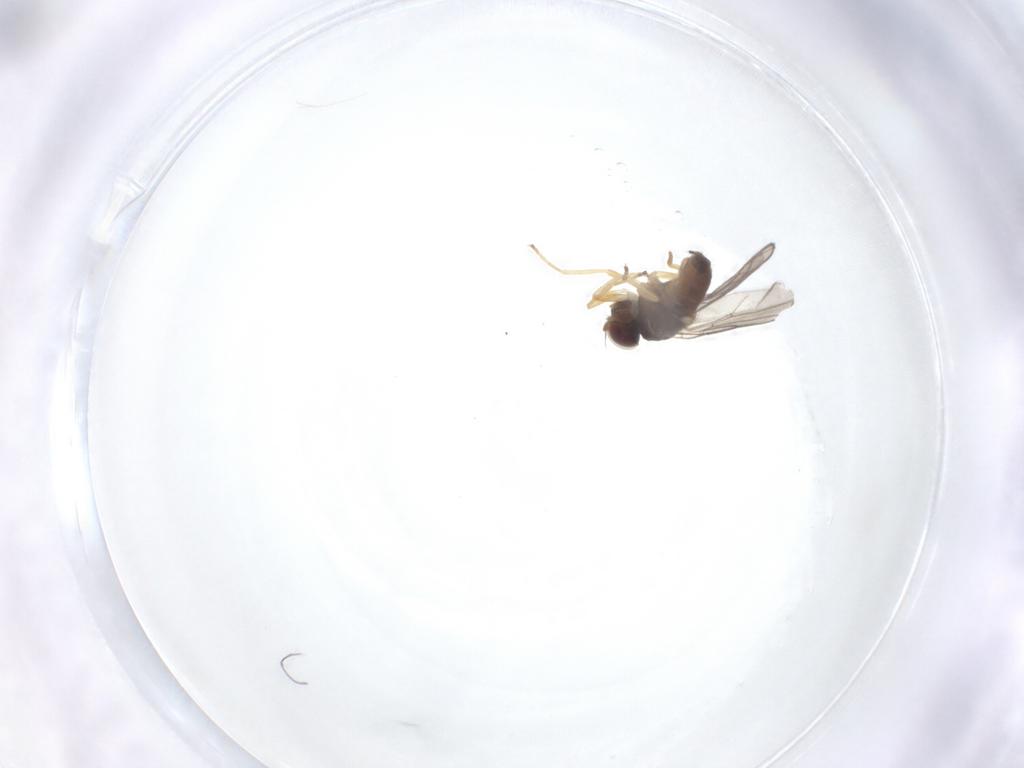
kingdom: Animalia
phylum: Arthropoda
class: Insecta
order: Diptera
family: Chloropidae
